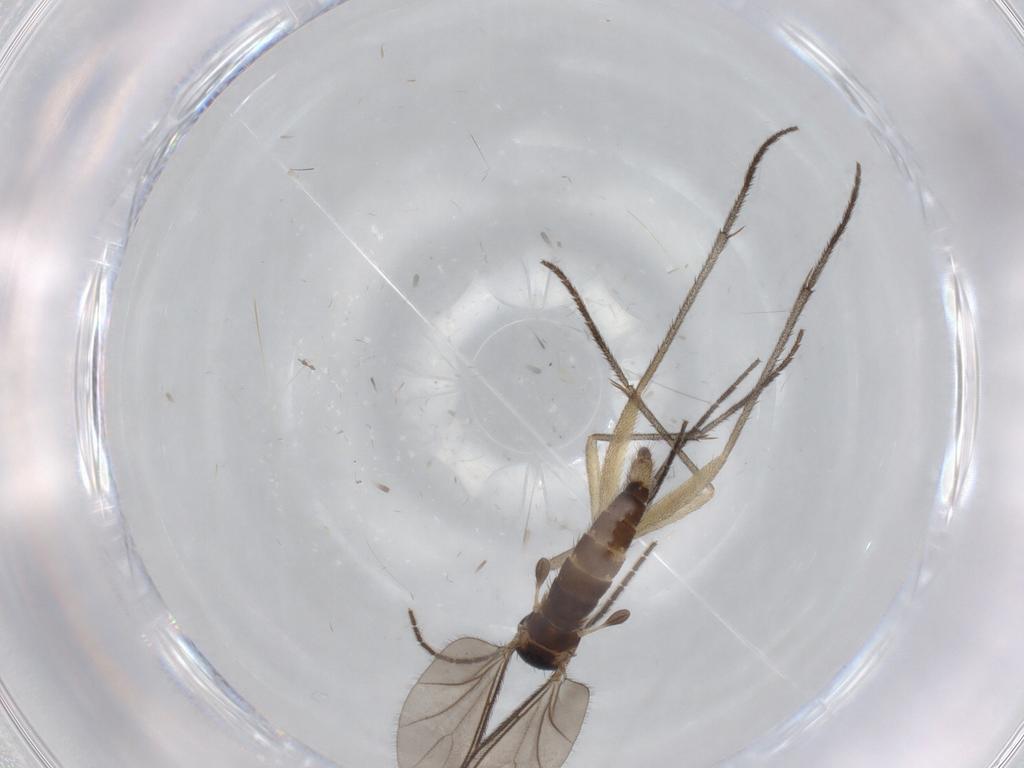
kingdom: Animalia
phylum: Arthropoda
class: Insecta
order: Diptera
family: Sciaridae
